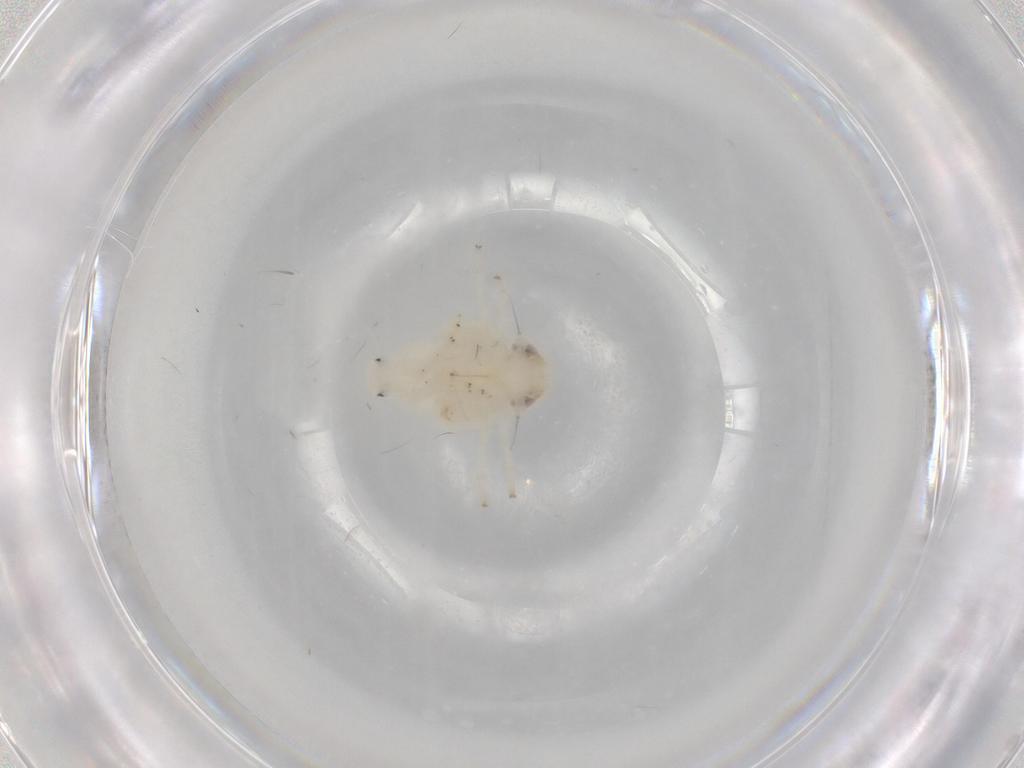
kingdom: Animalia
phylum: Arthropoda
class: Insecta
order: Hemiptera
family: Nogodinidae
